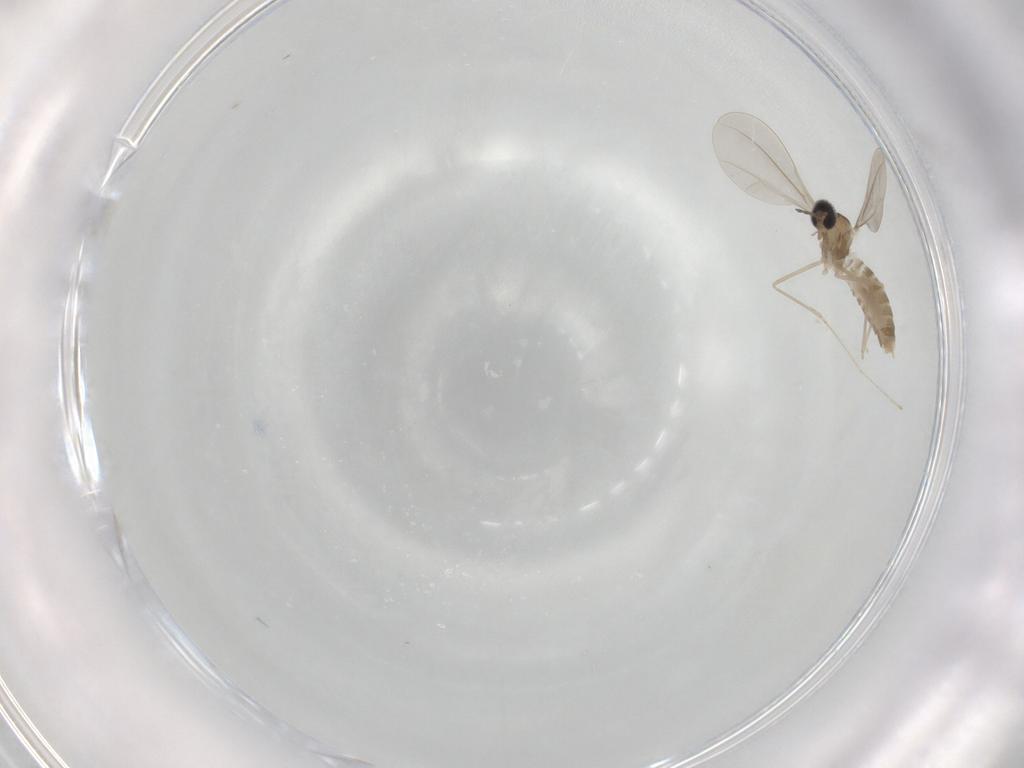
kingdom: Animalia
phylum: Arthropoda
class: Insecta
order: Diptera
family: Cecidomyiidae
